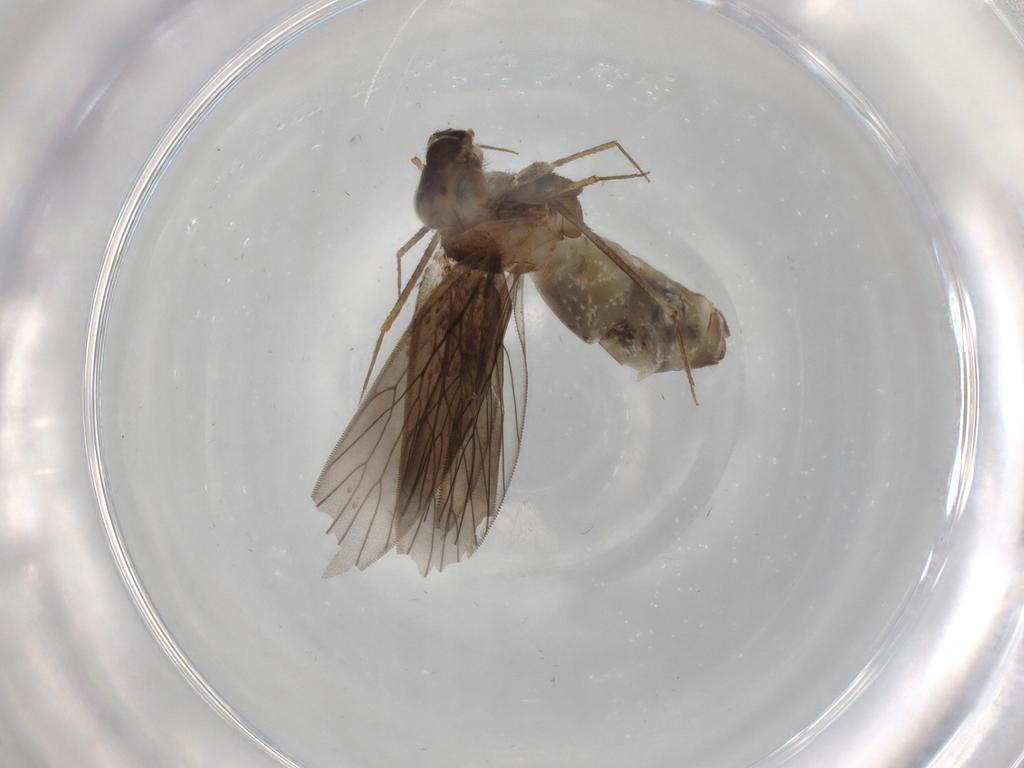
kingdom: Animalia
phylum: Arthropoda
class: Insecta
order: Psocodea
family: Lepidopsocidae
